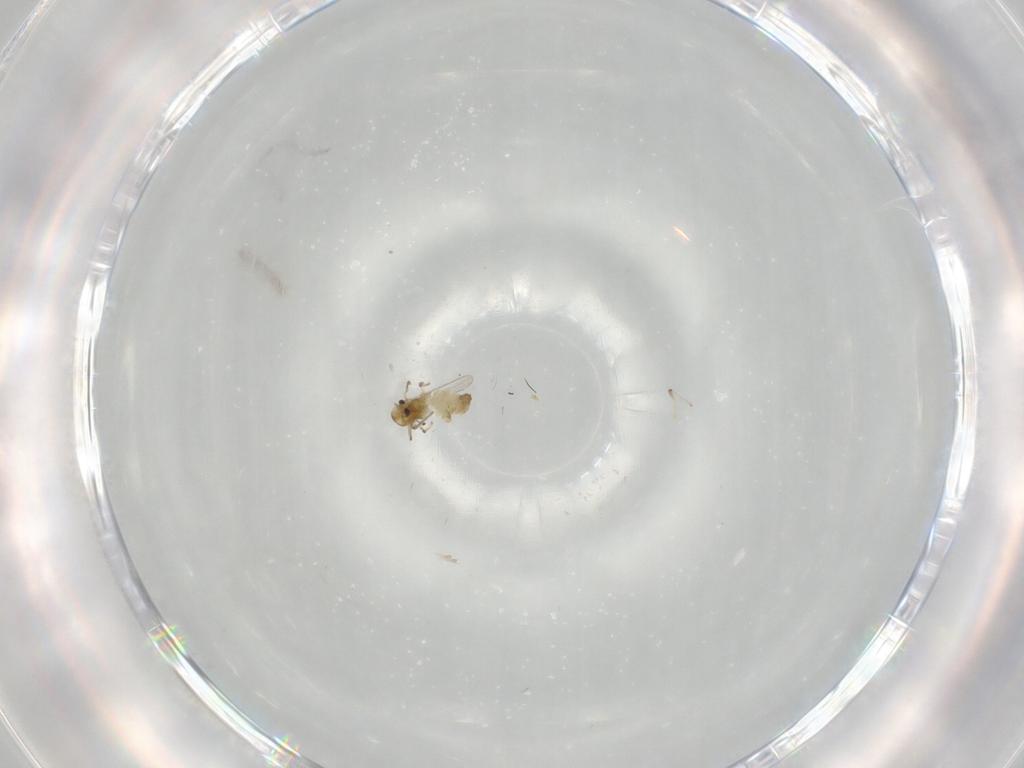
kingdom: Animalia
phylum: Arthropoda
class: Insecta
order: Diptera
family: Chironomidae
